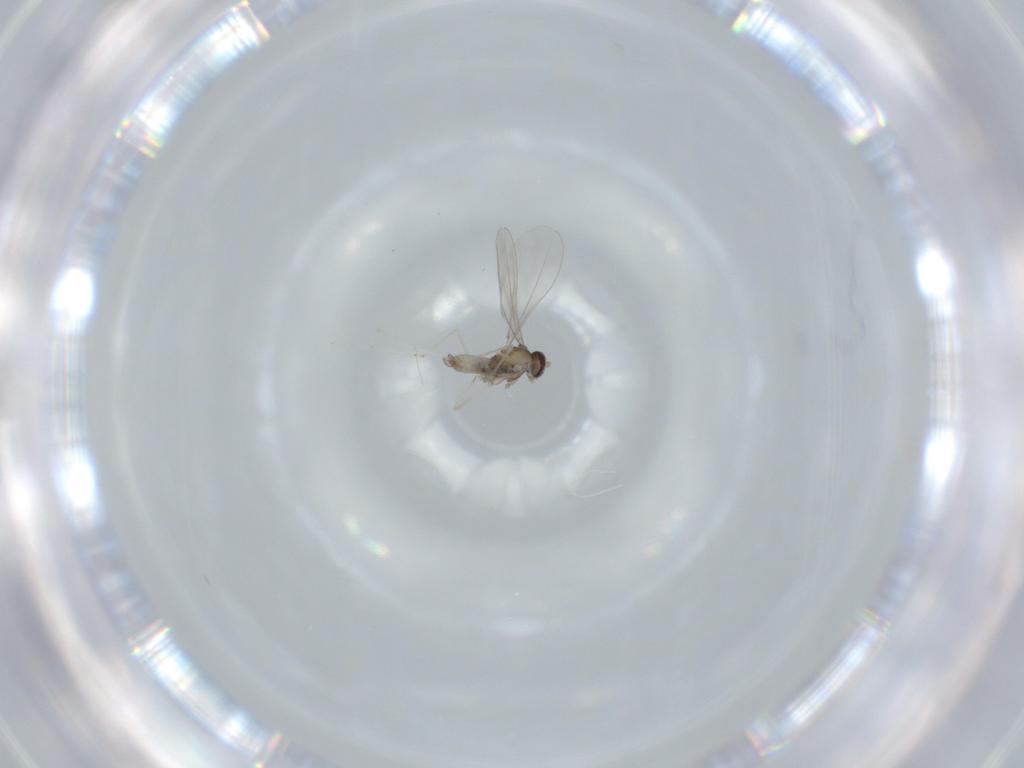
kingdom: Animalia
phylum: Arthropoda
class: Insecta
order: Diptera
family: Cecidomyiidae
